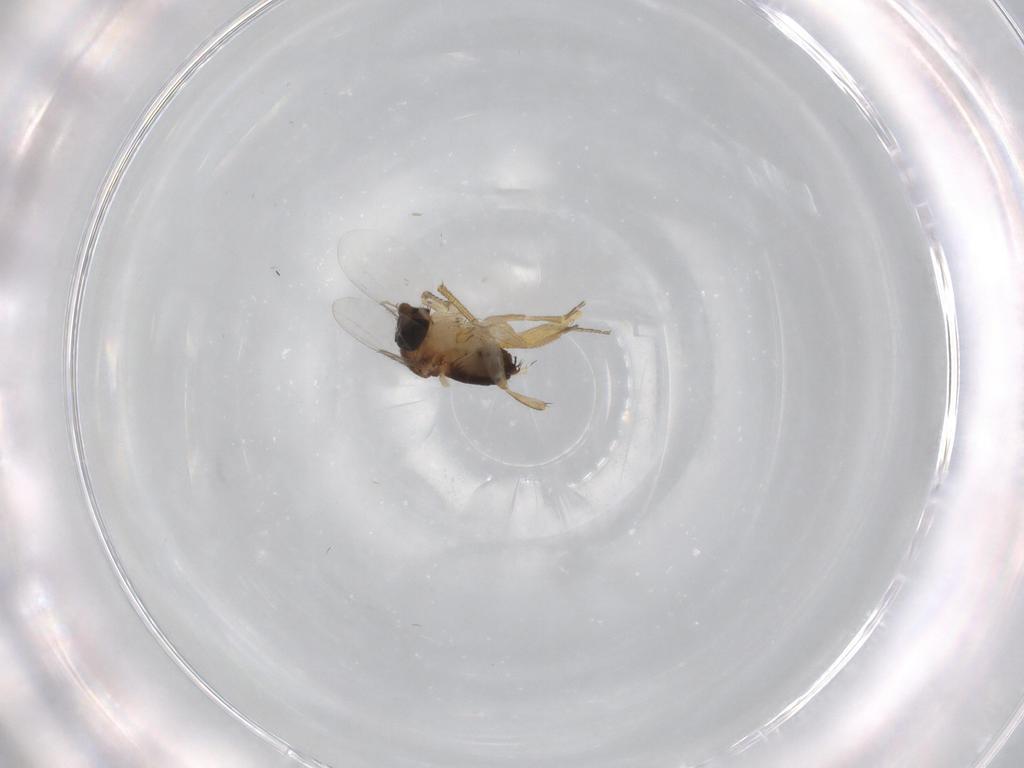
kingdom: Animalia
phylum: Arthropoda
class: Insecta
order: Diptera
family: Dolichopodidae
